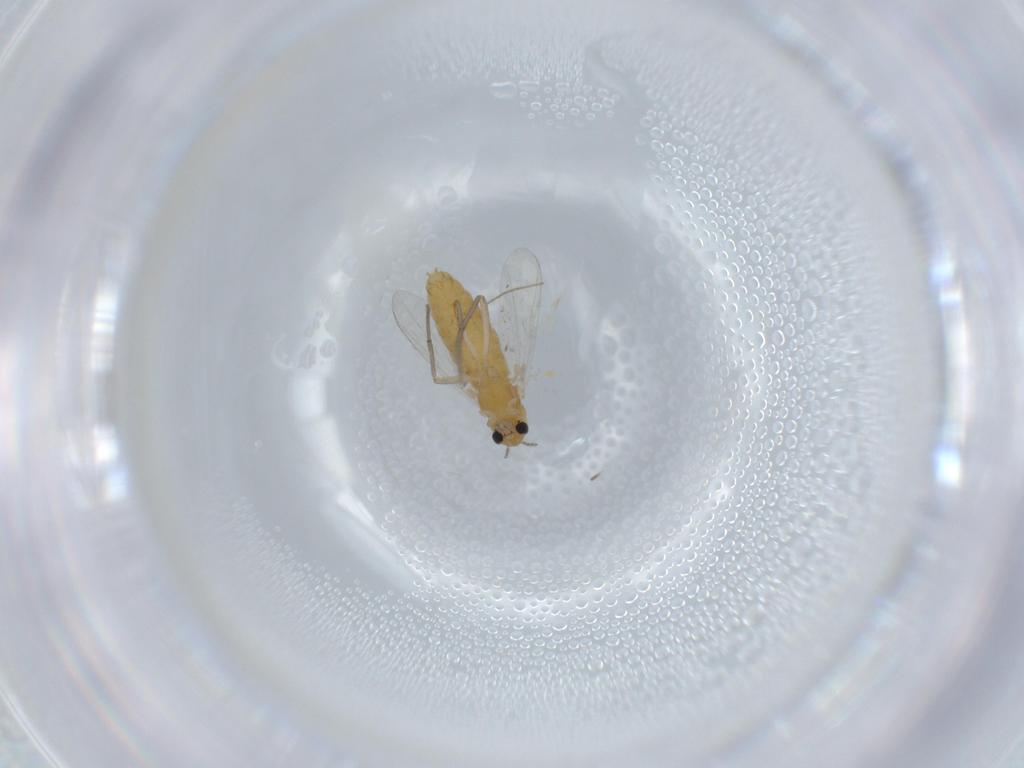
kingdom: Animalia
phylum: Arthropoda
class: Insecta
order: Diptera
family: Chironomidae
